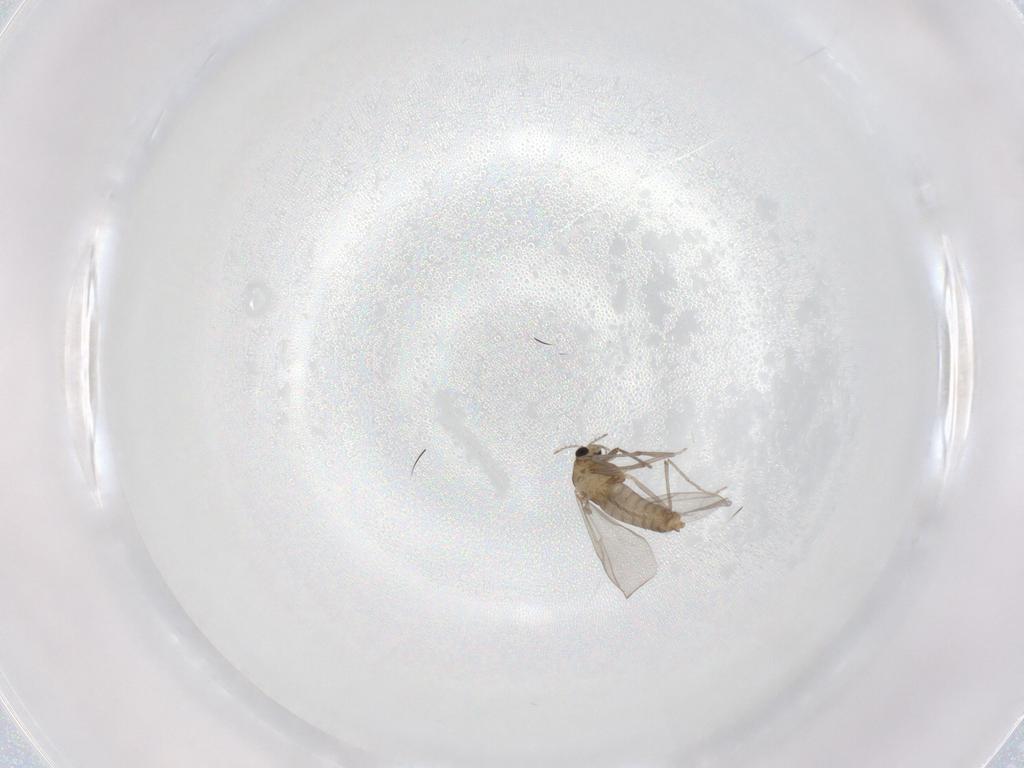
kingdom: Animalia
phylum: Arthropoda
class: Insecta
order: Diptera
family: Chironomidae
